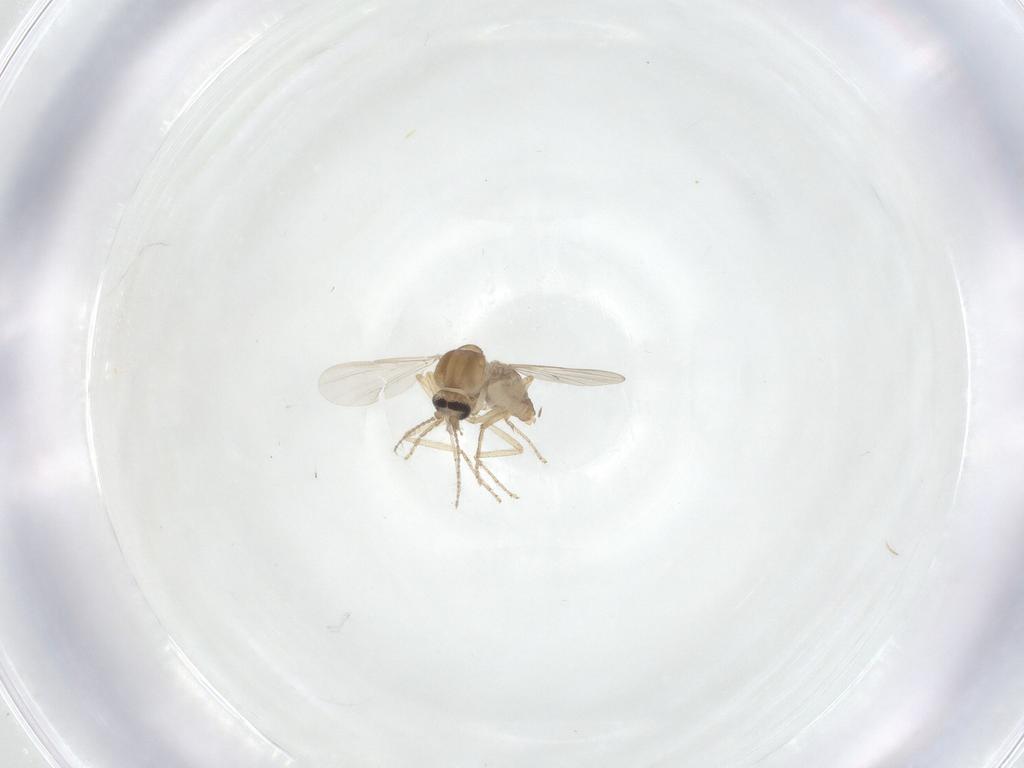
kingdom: Animalia
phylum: Arthropoda
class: Insecta
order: Diptera
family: Ceratopogonidae
